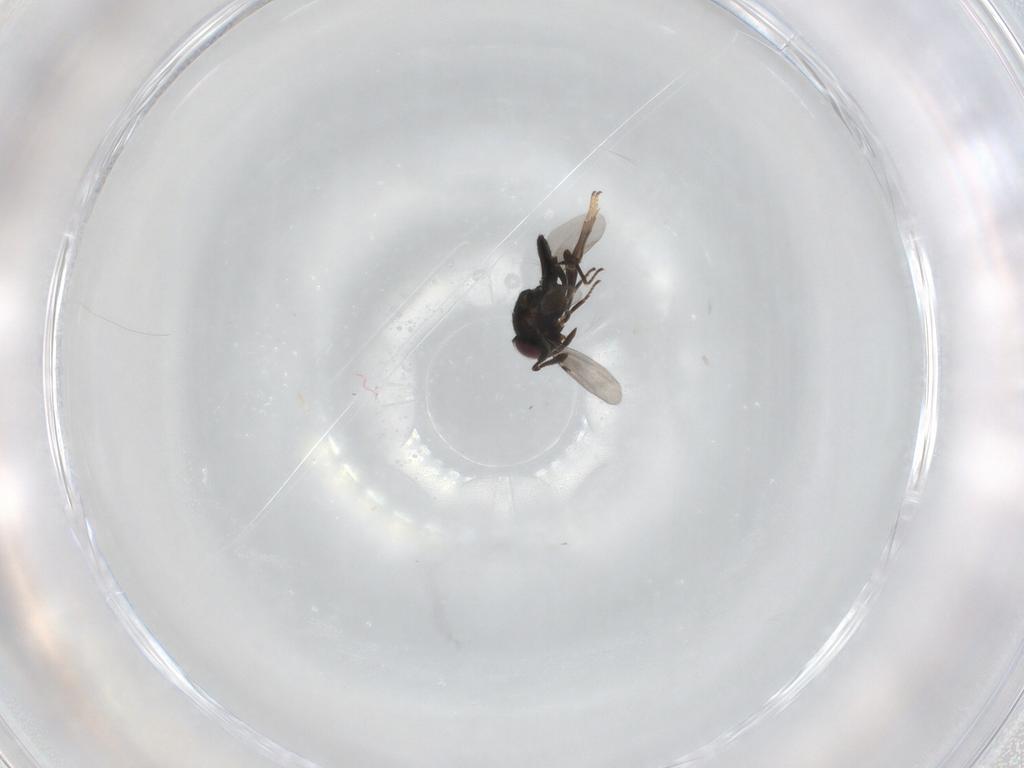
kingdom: Animalia
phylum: Arthropoda
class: Insecta
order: Hymenoptera
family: Encyrtidae
